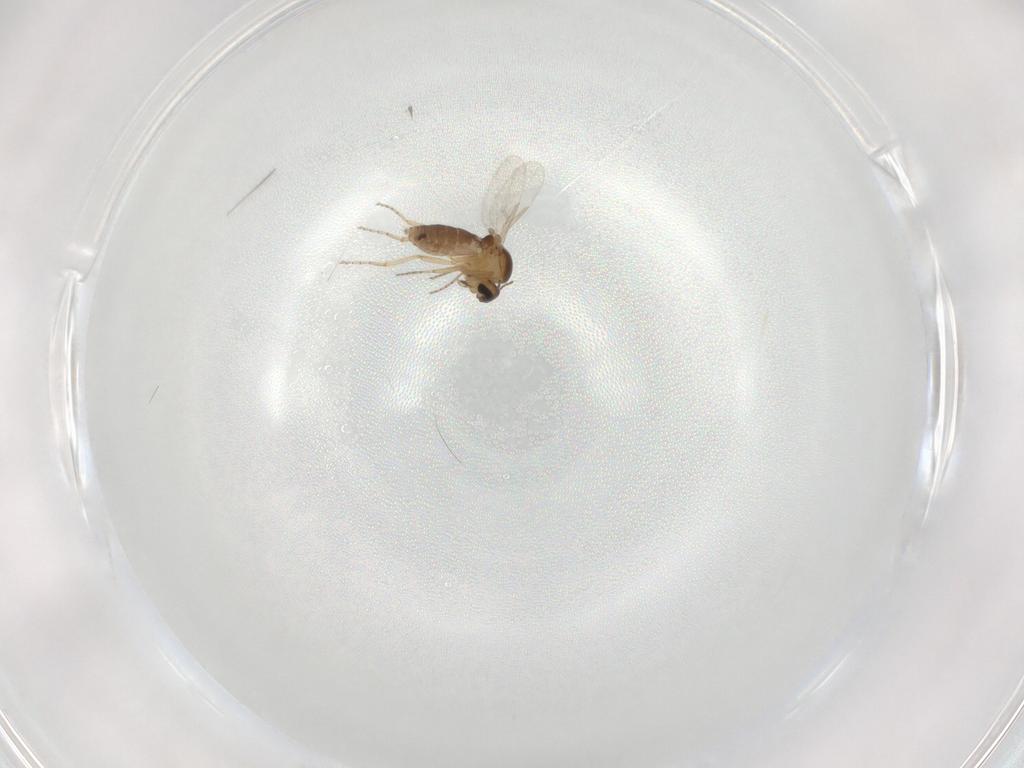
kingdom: Animalia
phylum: Arthropoda
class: Insecta
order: Diptera
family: Ceratopogonidae
